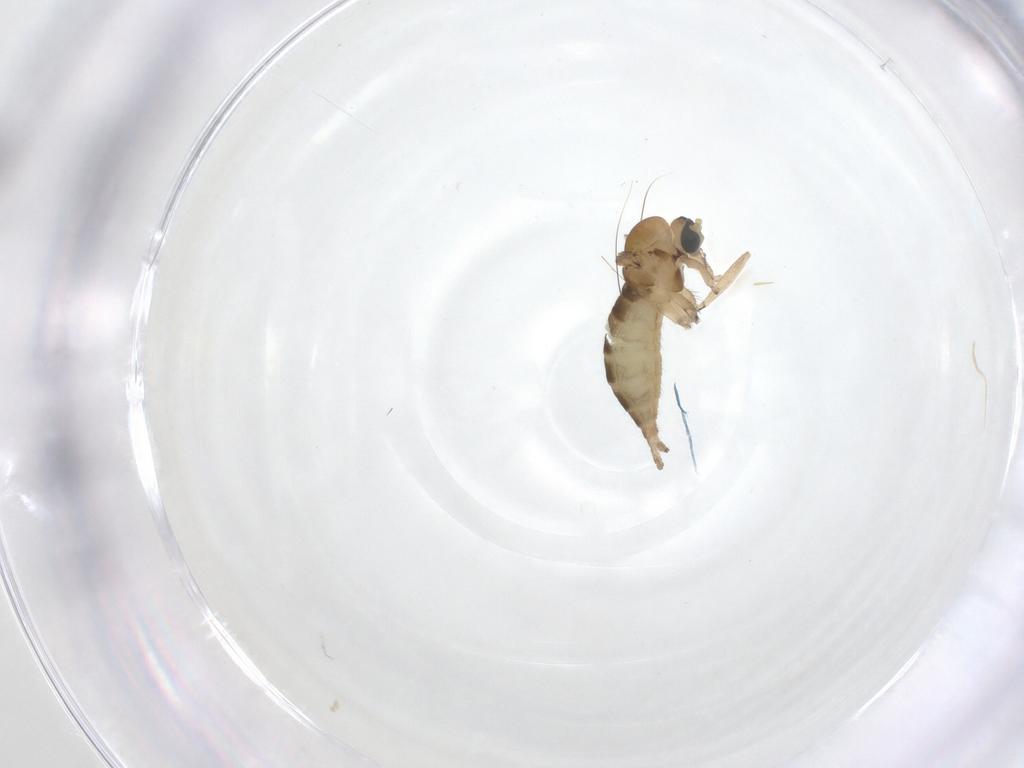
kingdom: Animalia
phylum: Arthropoda
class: Insecta
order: Diptera
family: Sciaridae
